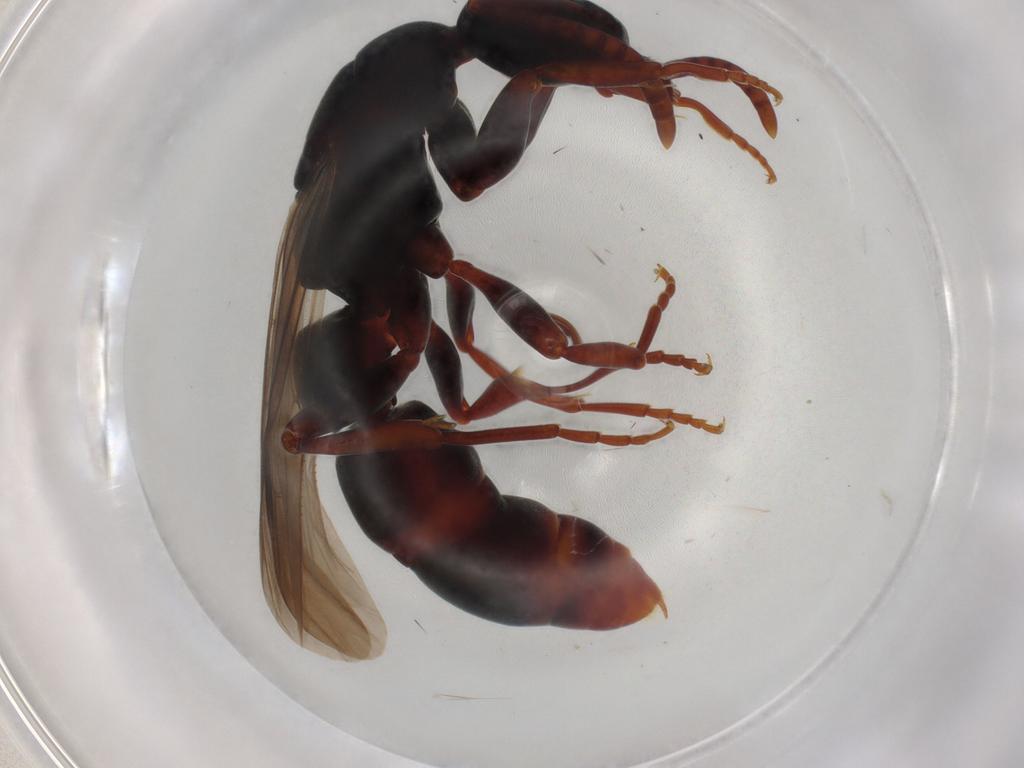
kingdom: Animalia
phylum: Arthropoda
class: Insecta
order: Hymenoptera
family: Formicidae
